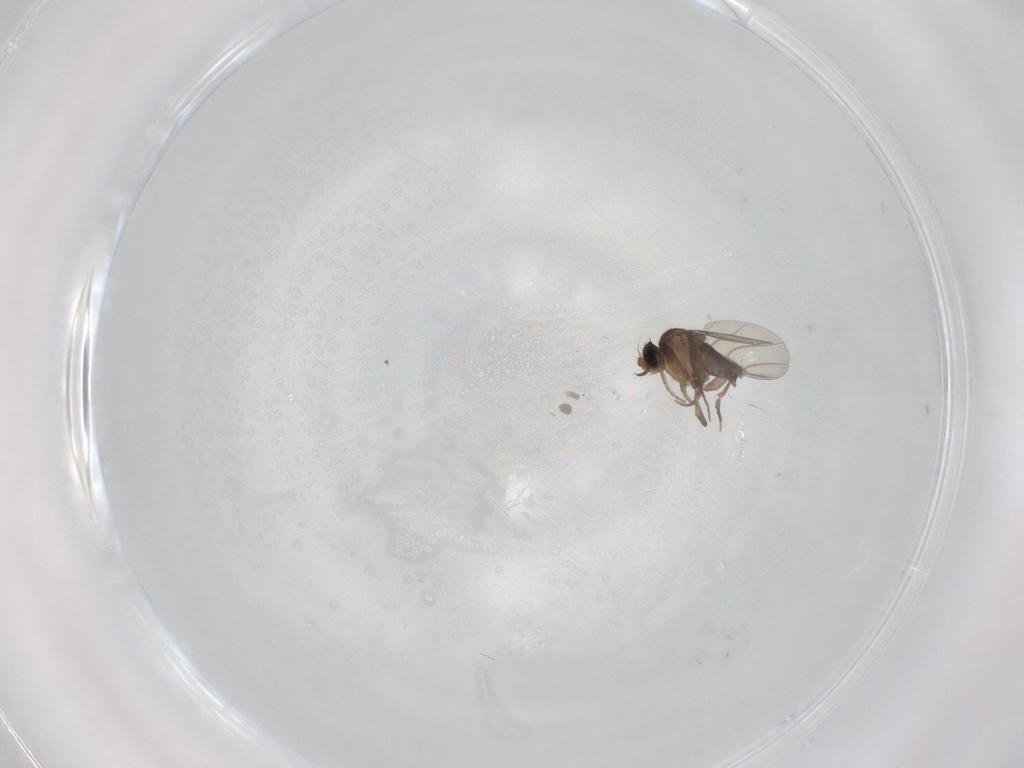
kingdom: Animalia
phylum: Arthropoda
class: Insecta
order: Diptera
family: Phoridae
